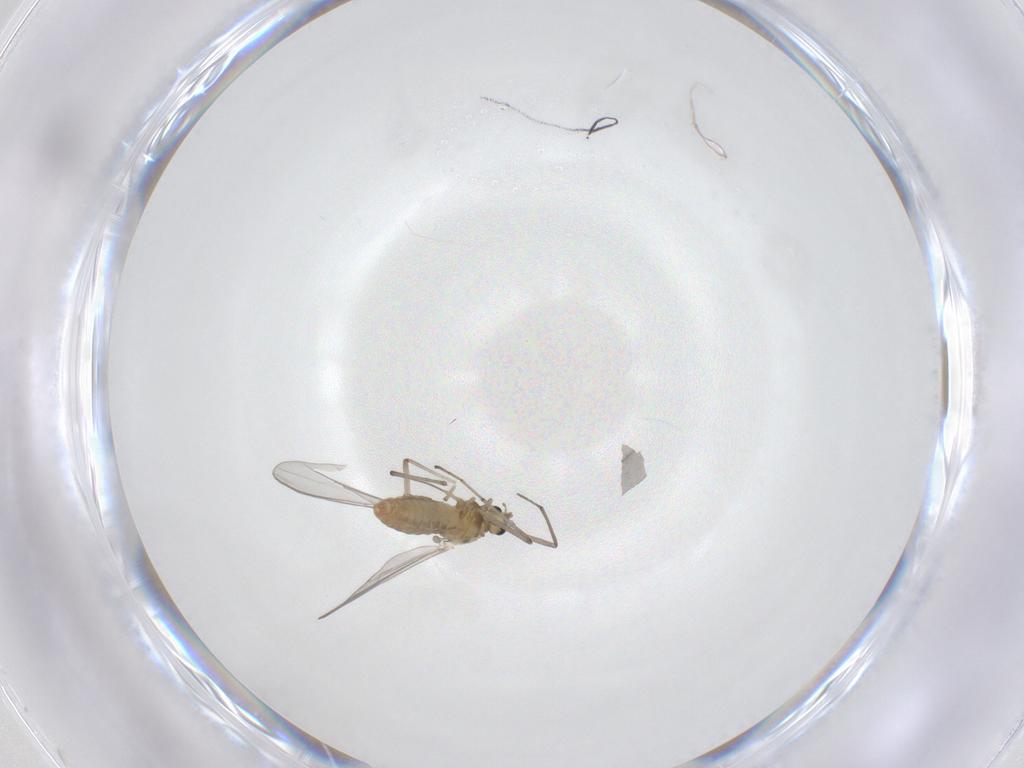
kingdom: Animalia
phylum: Arthropoda
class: Insecta
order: Diptera
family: Chironomidae
